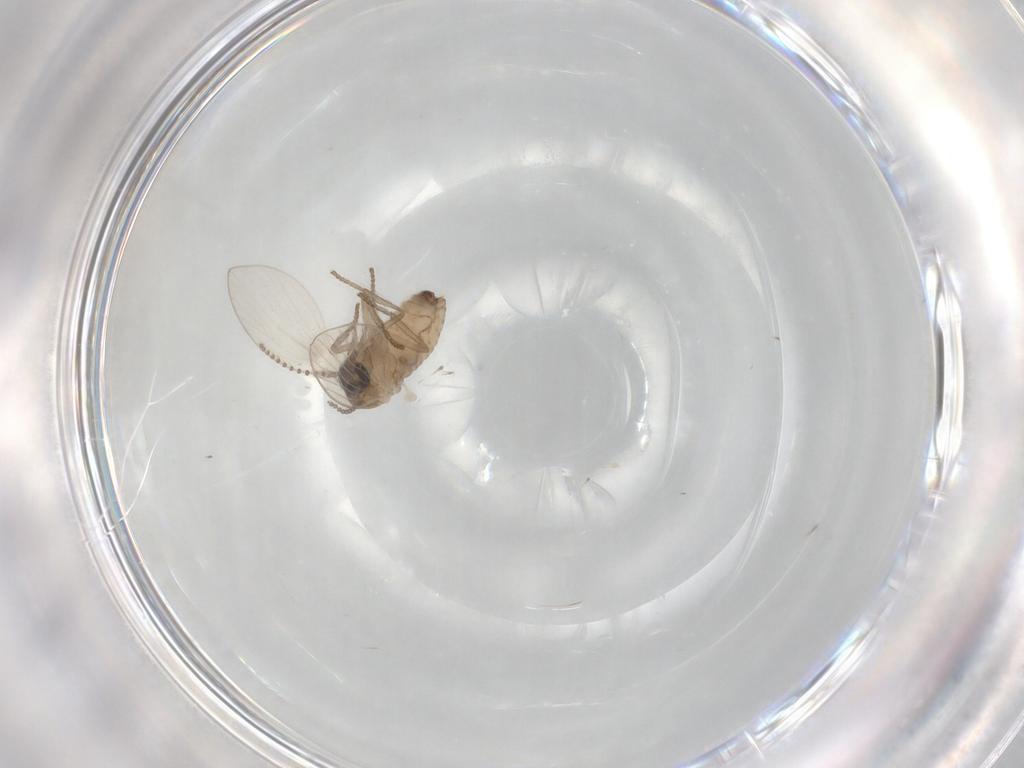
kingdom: Animalia
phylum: Arthropoda
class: Insecta
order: Diptera
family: Psychodidae
